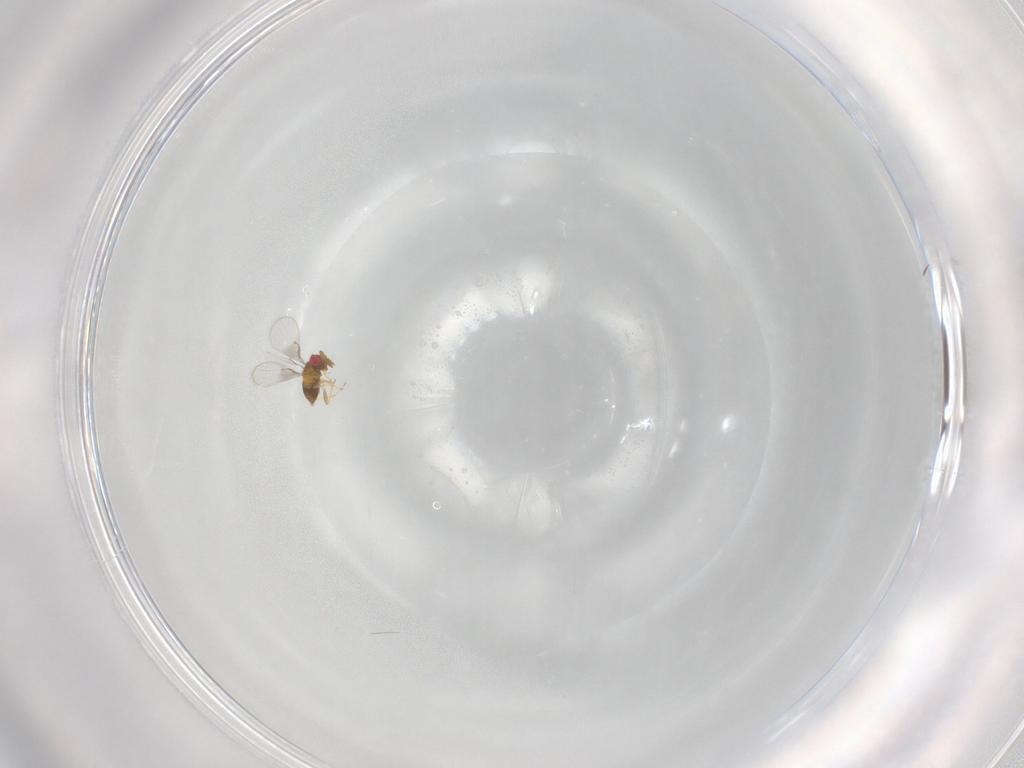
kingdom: Animalia
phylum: Arthropoda
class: Insecta
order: Hymenoptera
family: Trichogrammatidae
